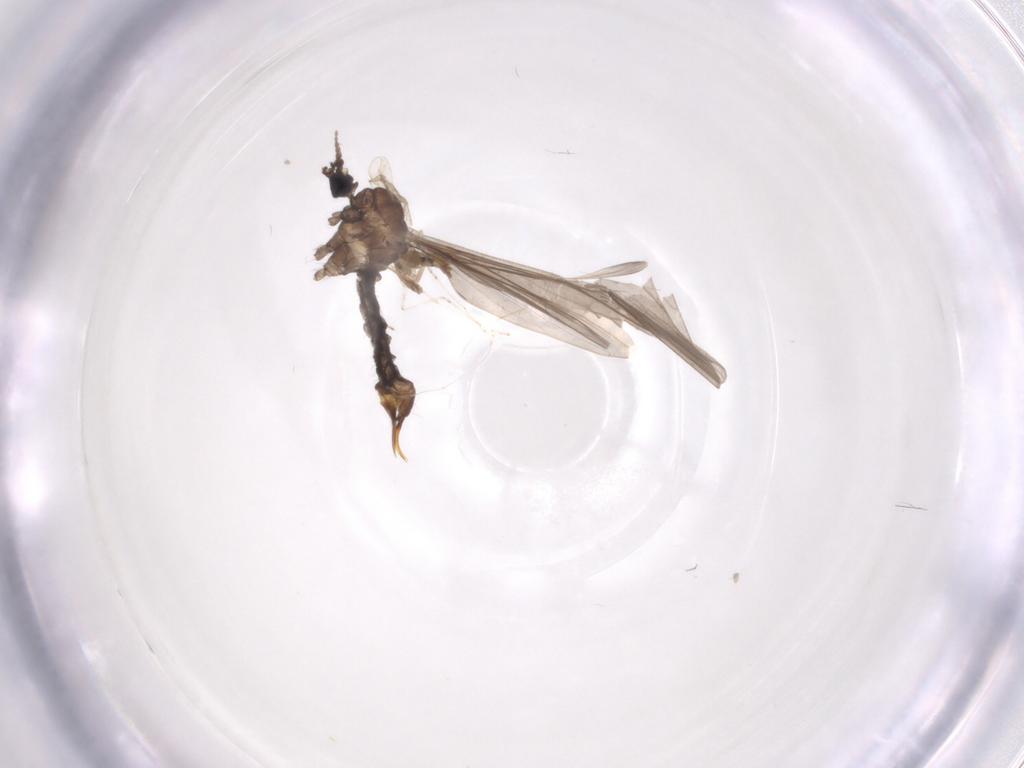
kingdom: Animalia
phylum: Arthropoda
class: Insecta
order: Diptera
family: Limoniidae
